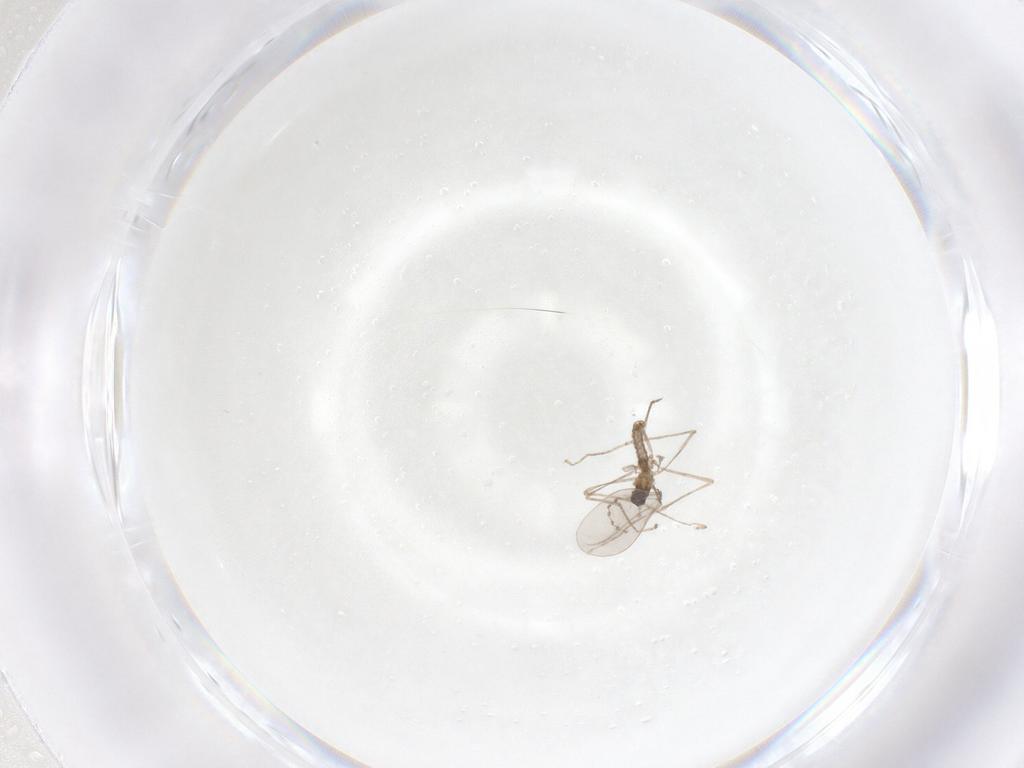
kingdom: Animalia
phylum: Arthropoda
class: Insecta
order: Diptera
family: Cecidomyiidae
